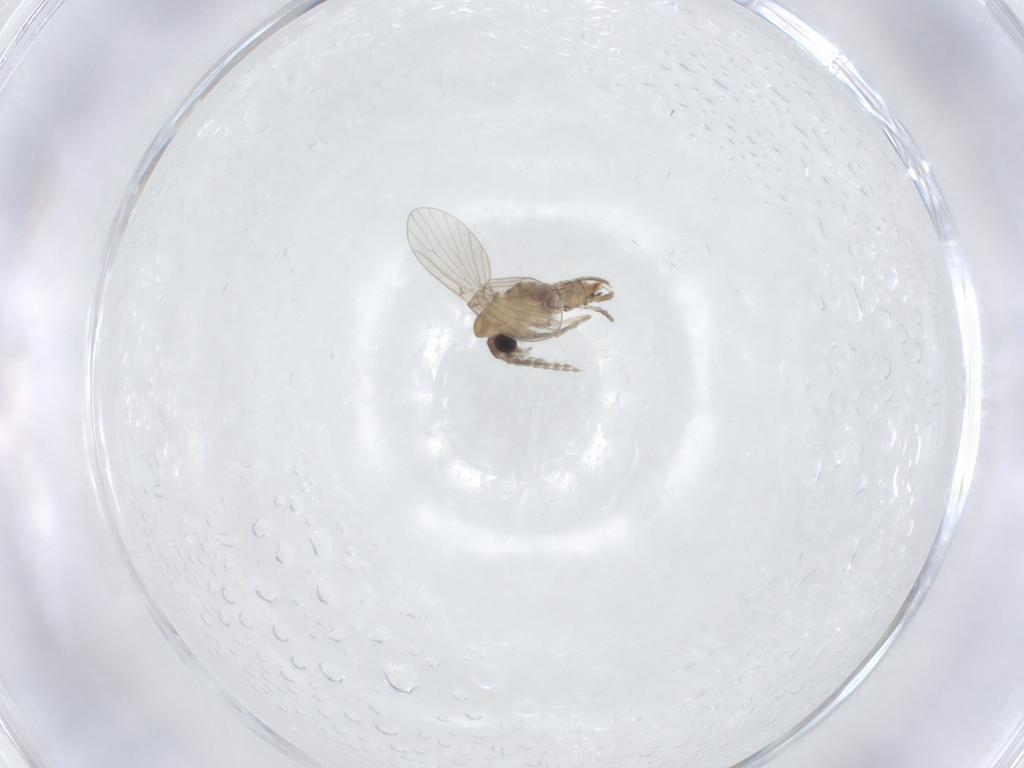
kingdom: Animalia
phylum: Arthropoda
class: Insecta
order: Diptera
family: Psychodidae
